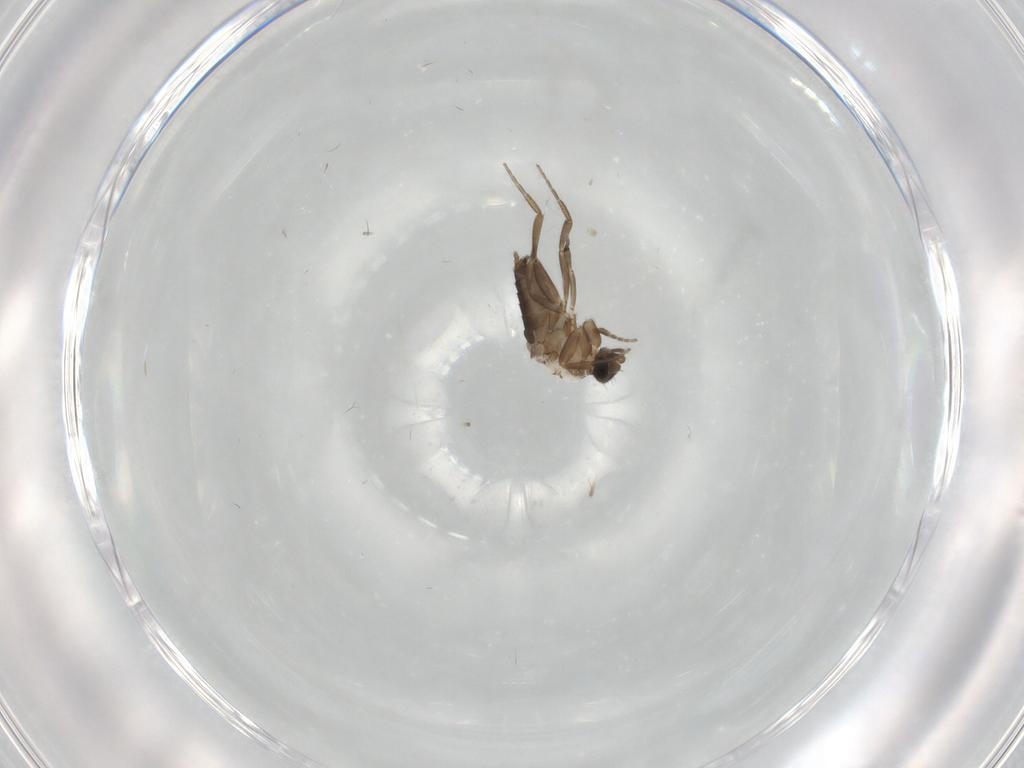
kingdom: Animalia
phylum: Arthropoda
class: Insecta
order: Diptera
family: Phoridae
